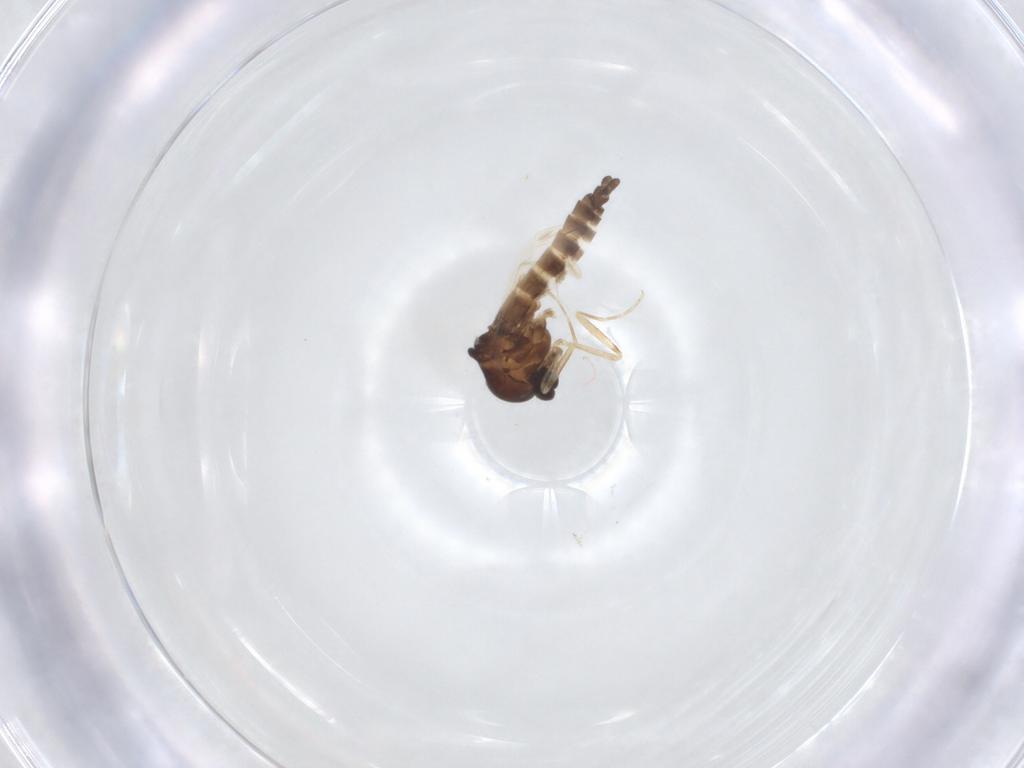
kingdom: Animalia
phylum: Arthropoda
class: Insecta
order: Diptera
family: Ceratopogonidae
